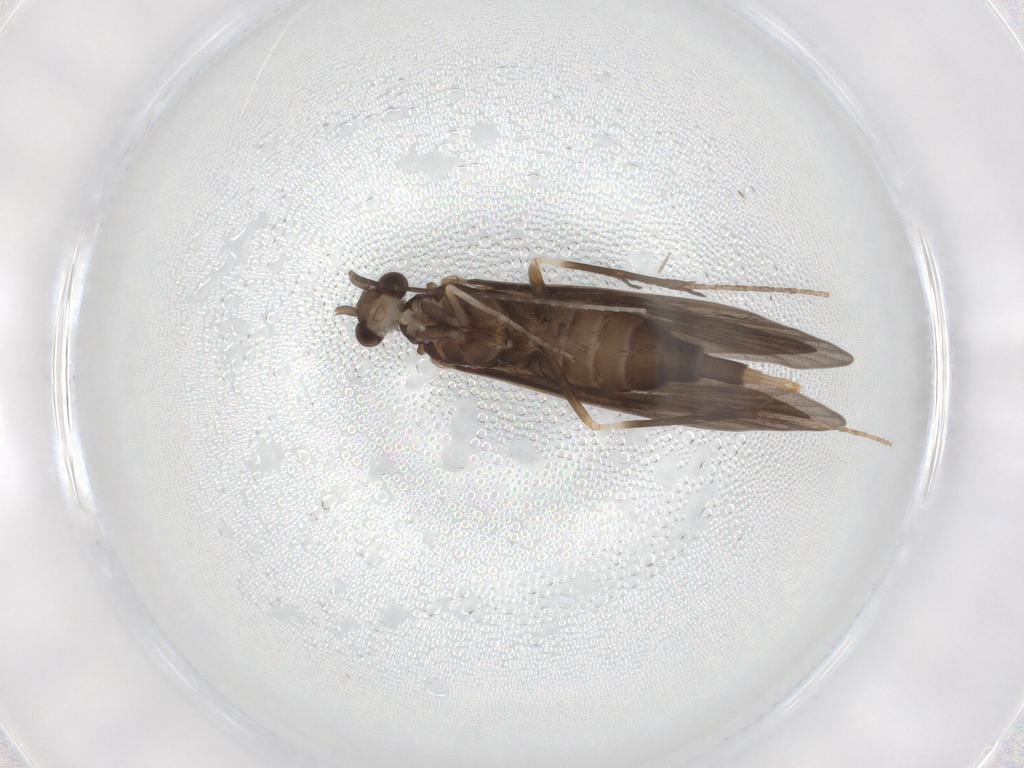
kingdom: Animalia
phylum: Arthropoda
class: Insecta
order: Trichoptera
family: Xiphocentronidae
